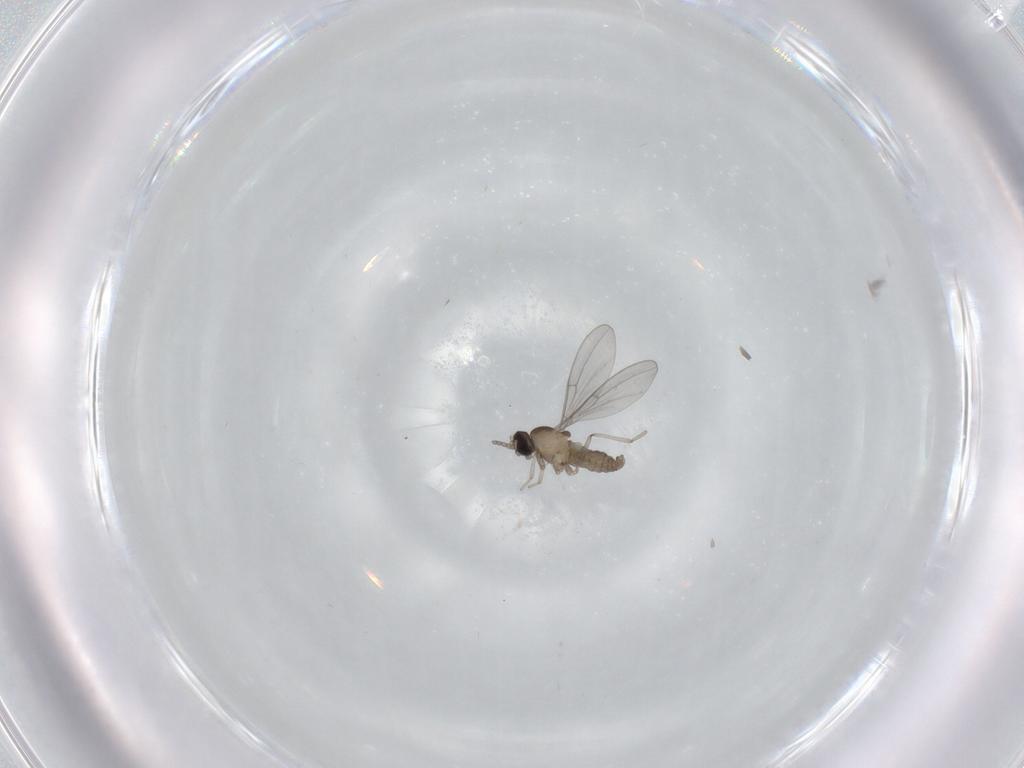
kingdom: Animalia
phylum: Arthropoda
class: Insecta
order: Diptera
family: Cecidomyiidae
